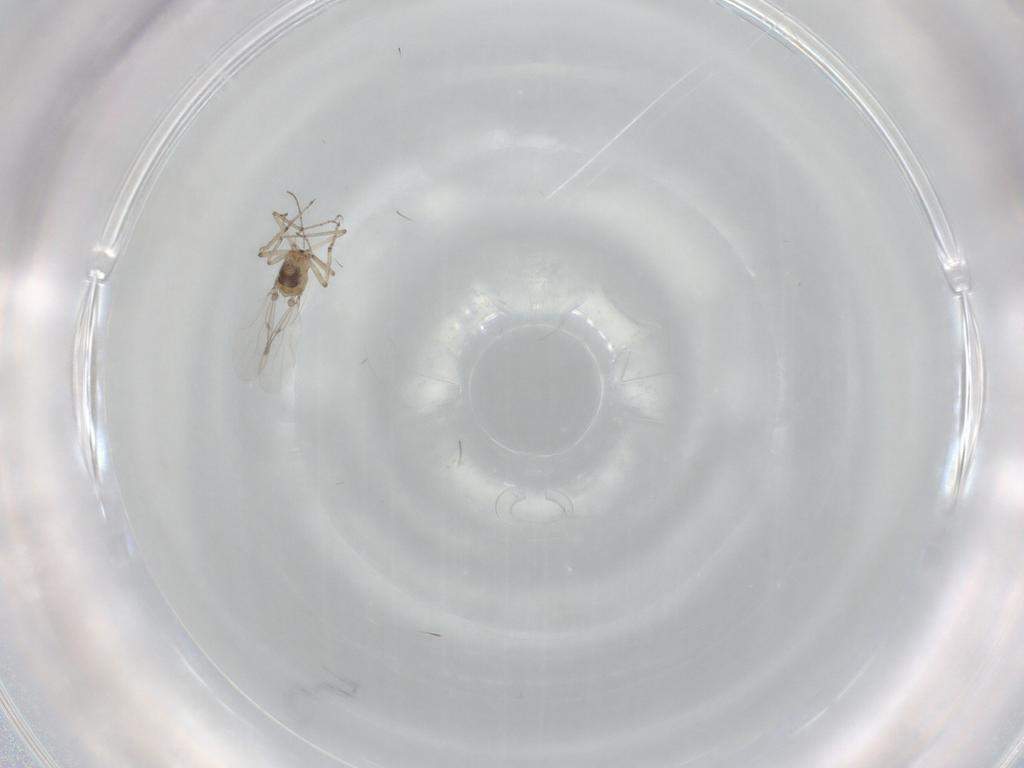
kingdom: Animalia
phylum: Arthropoda
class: Insecta
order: Diptera
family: Ceratopogonidae
